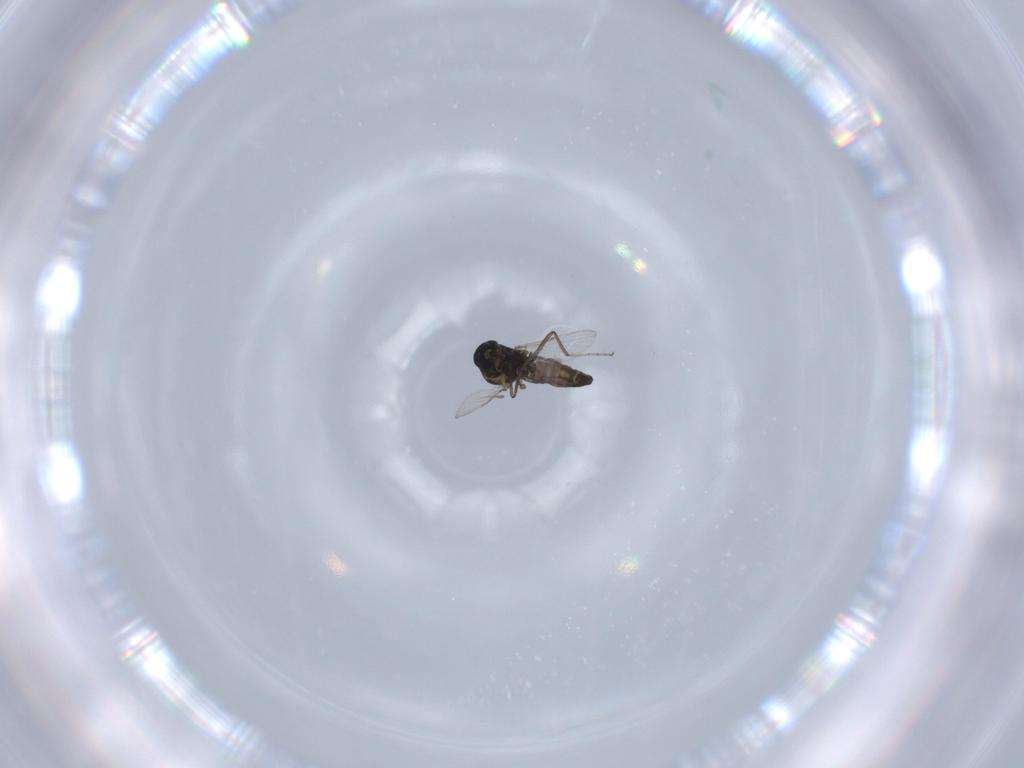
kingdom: Animalia
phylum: Arthropoda
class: Insecta
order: Diptera
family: Ceratopogonidae
